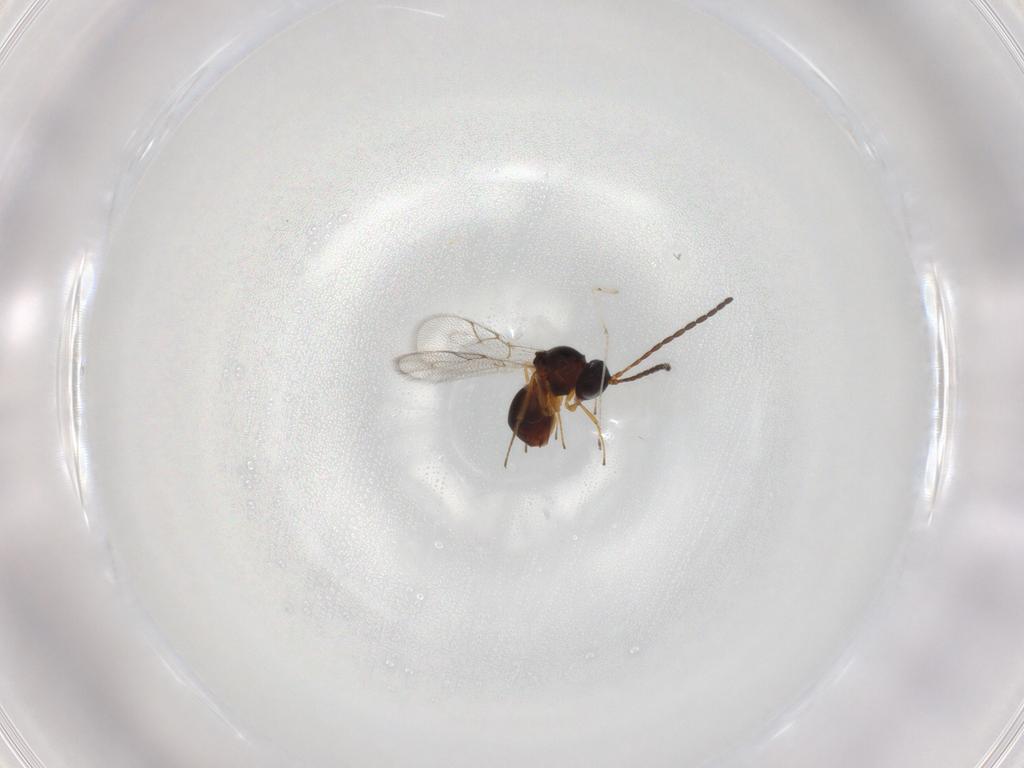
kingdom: Animalia
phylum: Arthropoda
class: Insecta
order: Hymenoptera
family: Figitidae
